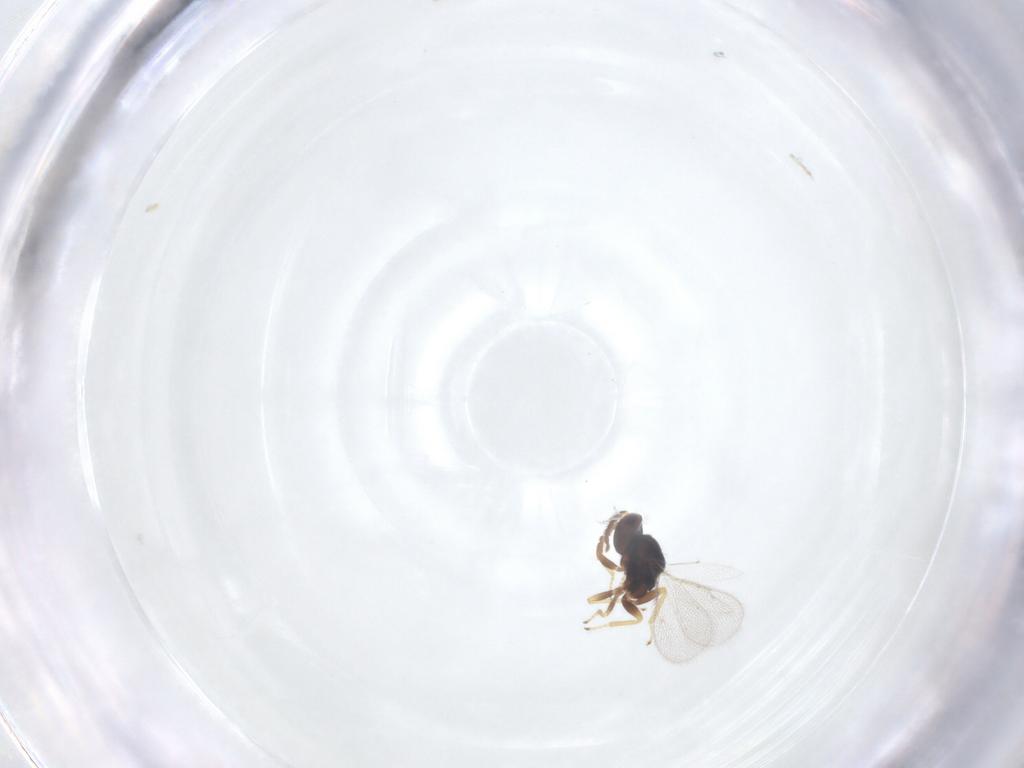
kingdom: Animalia
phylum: Arthropoda
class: Insecta
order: Hymenoptera
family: Eulophidae
